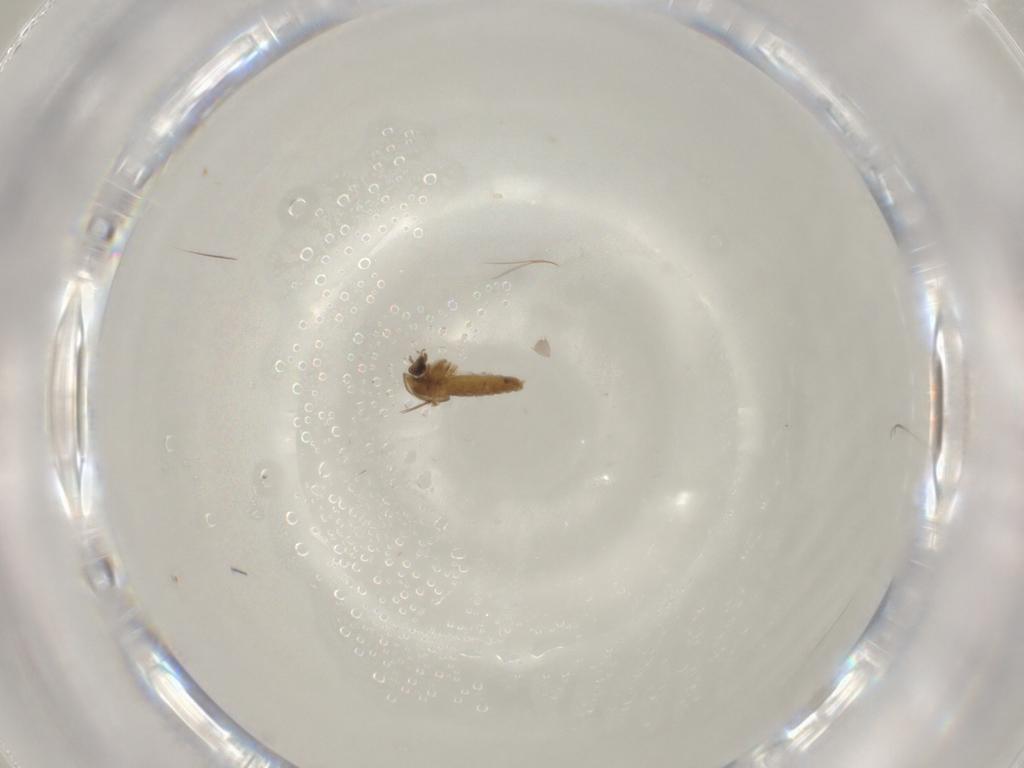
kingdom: Animalia
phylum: Arthropoda
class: Insecta
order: Diptera
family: Chironomidae
